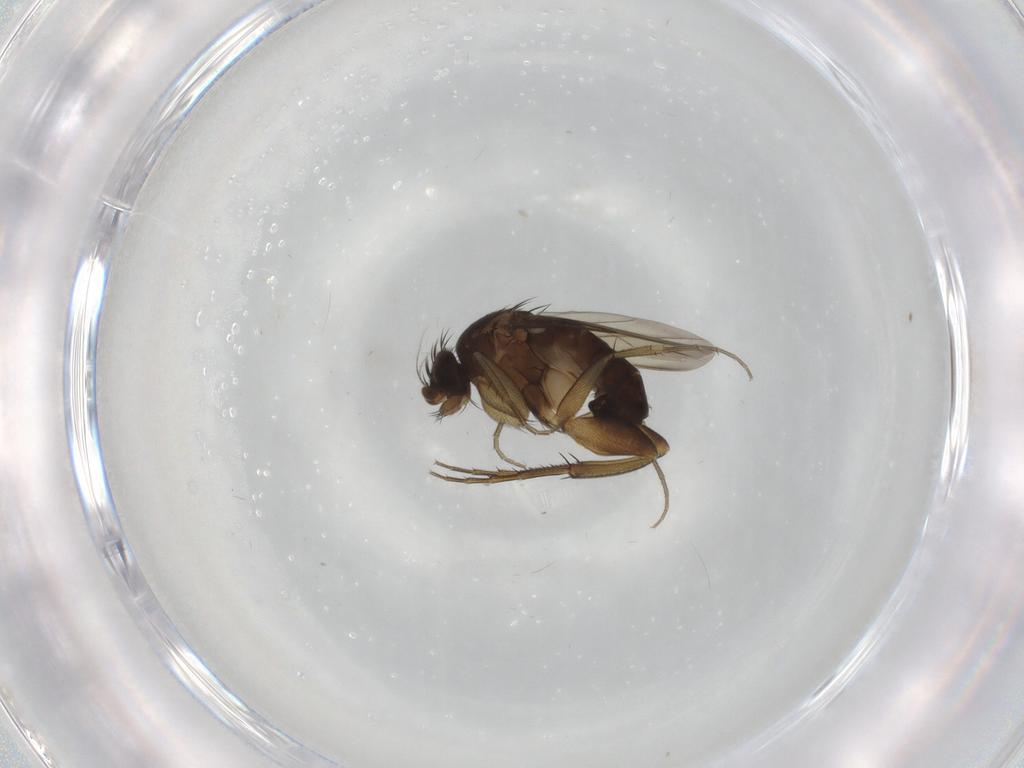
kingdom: Animalia
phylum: Arthropoda
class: Insecta
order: Diptera
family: Phoridae
